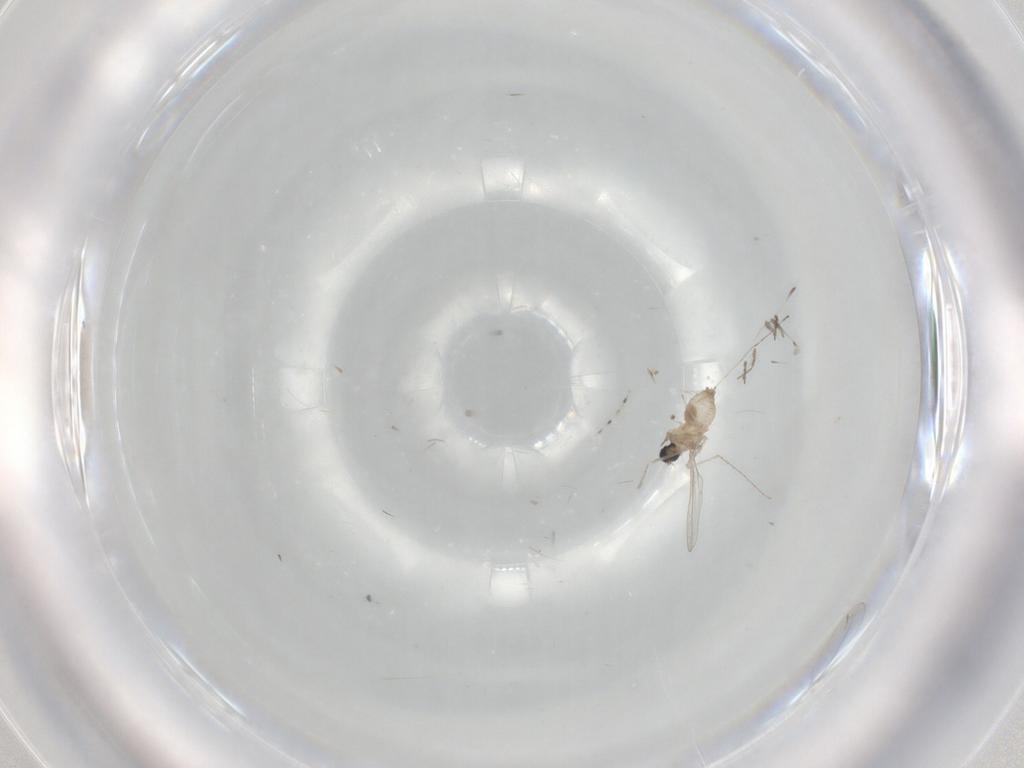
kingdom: Animalia
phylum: Arthropoda
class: Insecta
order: Diptera
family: Cecidomyiidae
